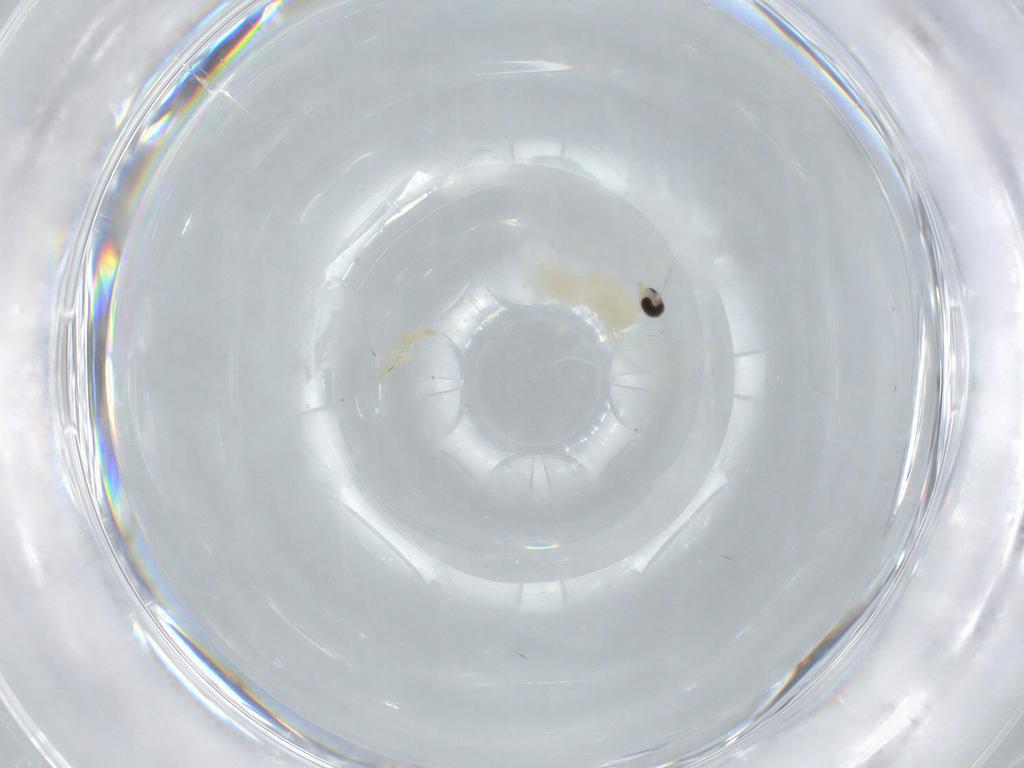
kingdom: Animalia
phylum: Arthropoda
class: Insecta
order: Diptera
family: Cecidomyiidae
